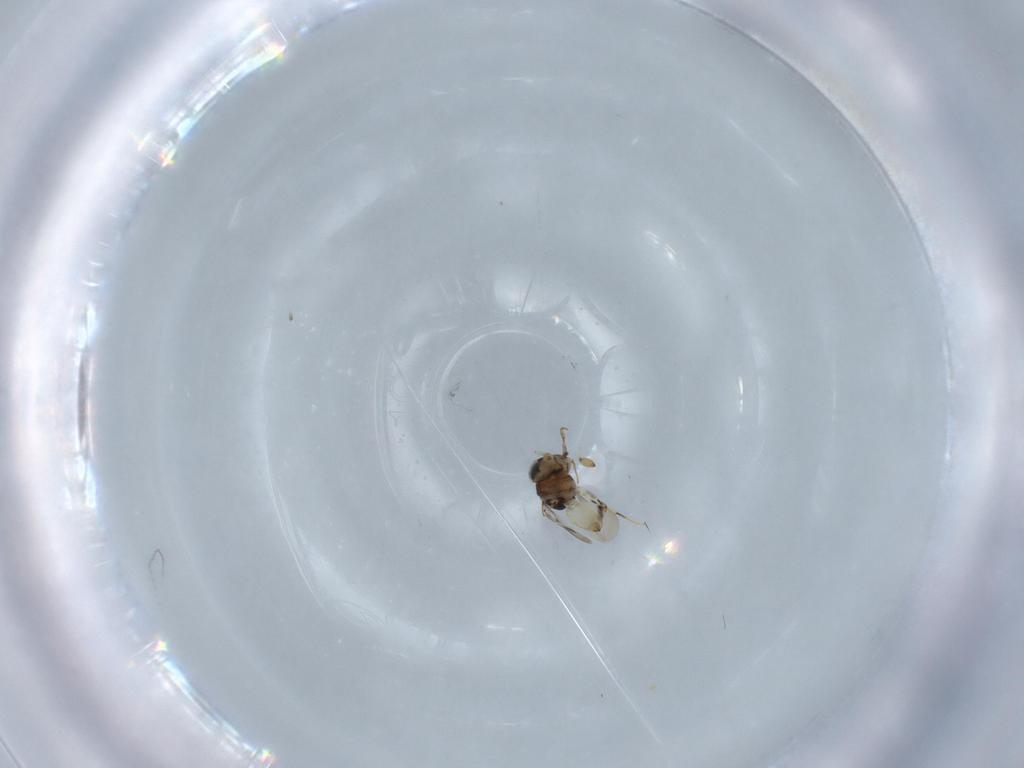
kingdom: Animalia
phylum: Arthropoda
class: Insecta
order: Hymenoptera
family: Scelionidae
